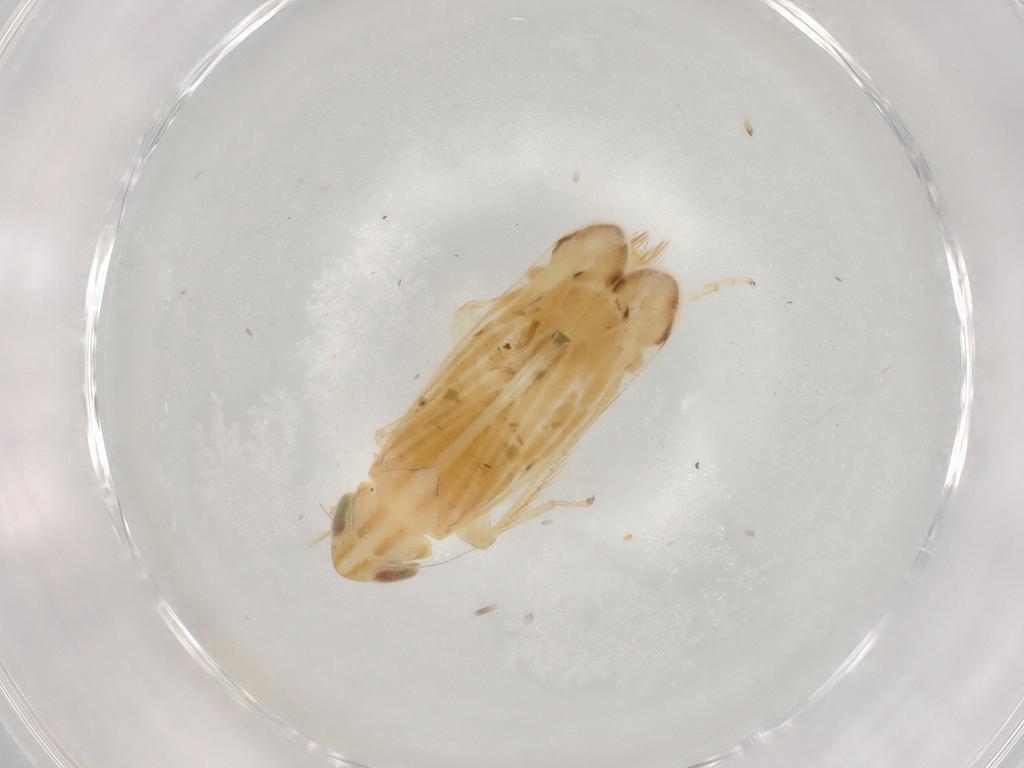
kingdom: Animalia
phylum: Arthropoda
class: Insecta
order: Hemiptera
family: Cicadellidae
